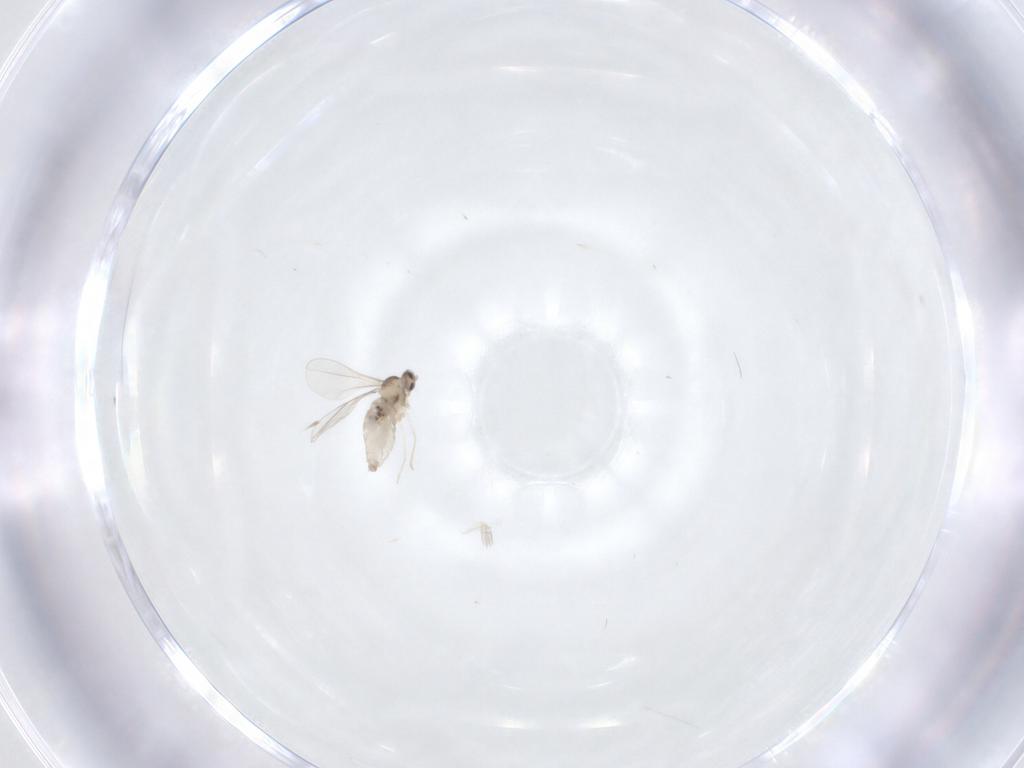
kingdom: Animalia
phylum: Arthropoda
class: Insecta
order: Diptera
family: Cecidomyiidae
